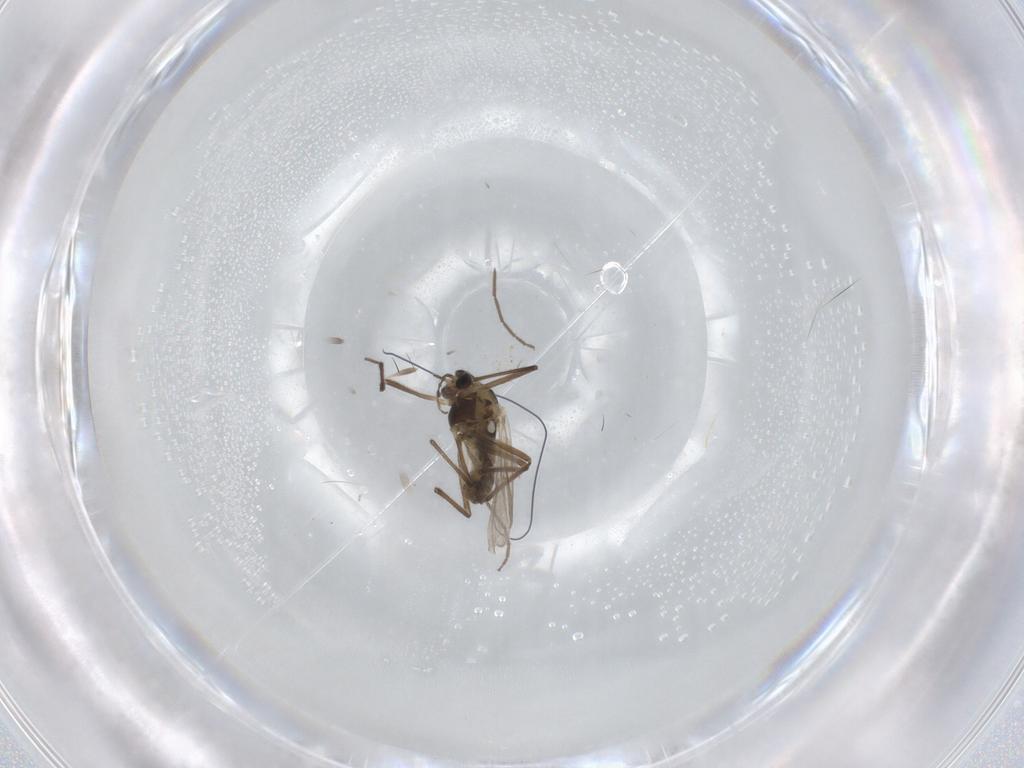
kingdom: Animalia
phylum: Arthropoda
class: Insecta
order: Diptera
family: Chironomidae
